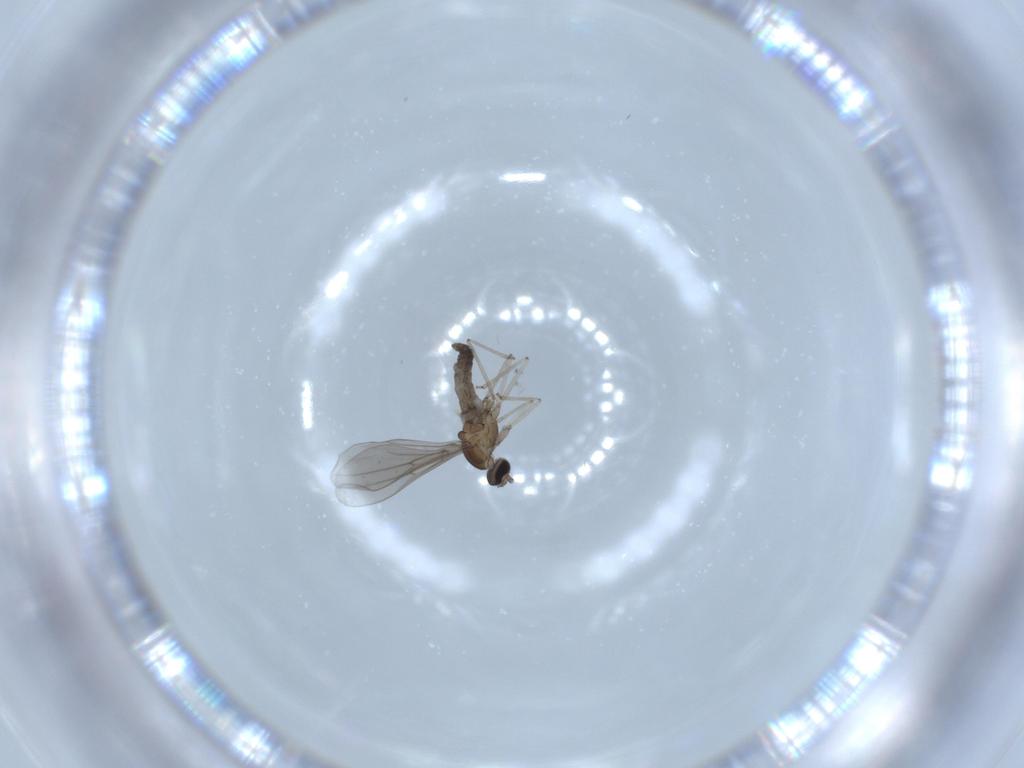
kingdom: Animalia
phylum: Arthropoda
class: Insecta
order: Diptera
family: Cecidomyiidae
